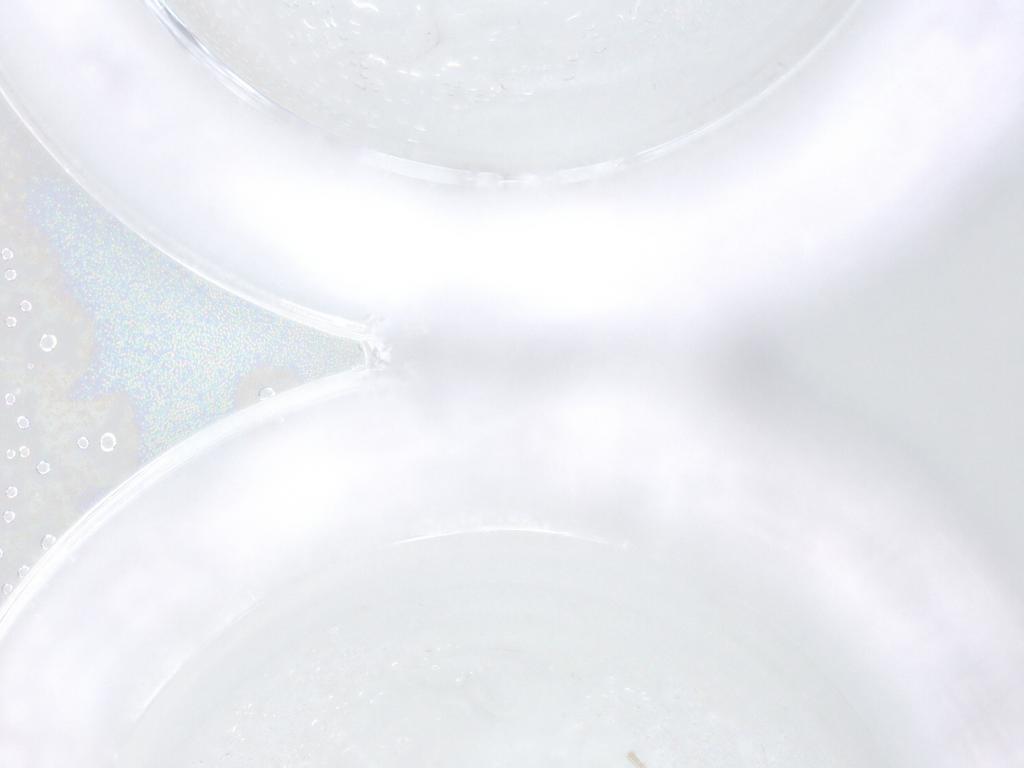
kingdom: Animalia
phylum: Arthropoda
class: Insecta
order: Diptera
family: Chironomidae
